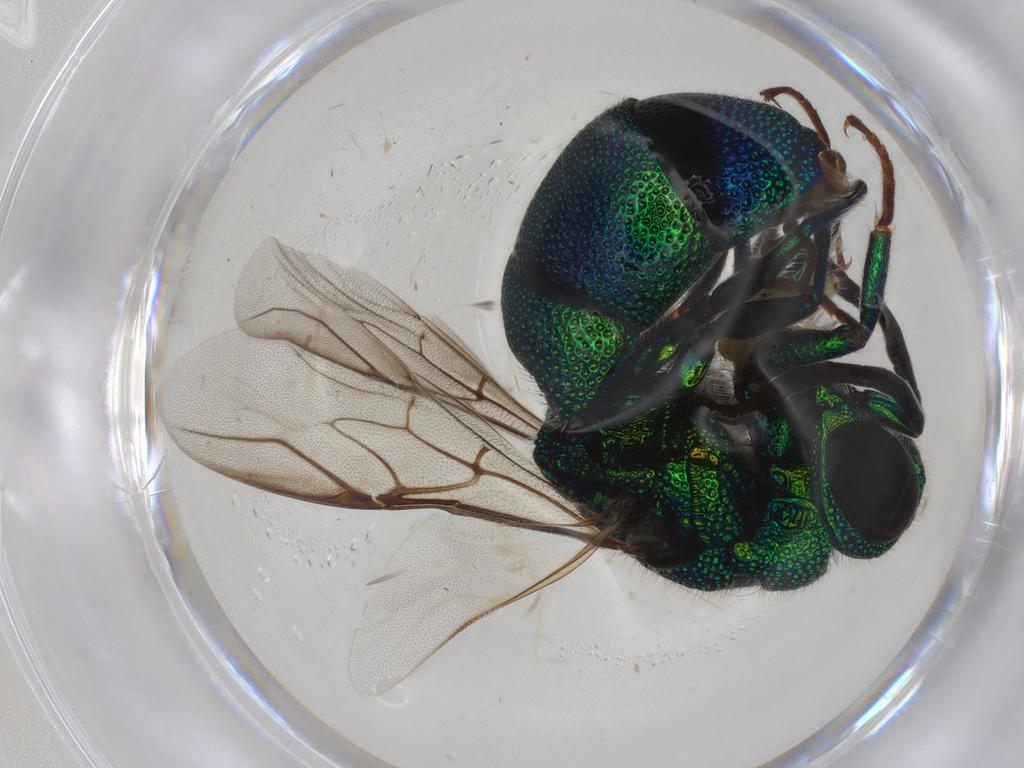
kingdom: Animalia
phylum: Arthropoda
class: Insecta
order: Hymenoptera
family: Chrysididae
